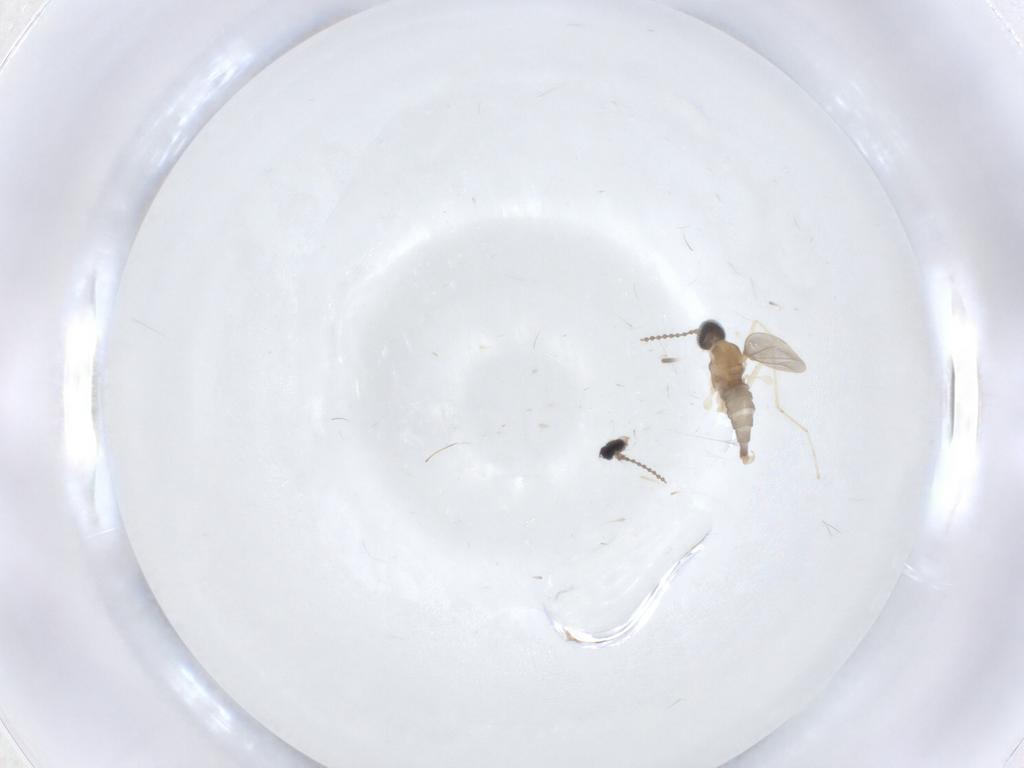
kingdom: Animalia
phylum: Arthropoda
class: Insecta
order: Diptera
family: Cecidomyiidae
